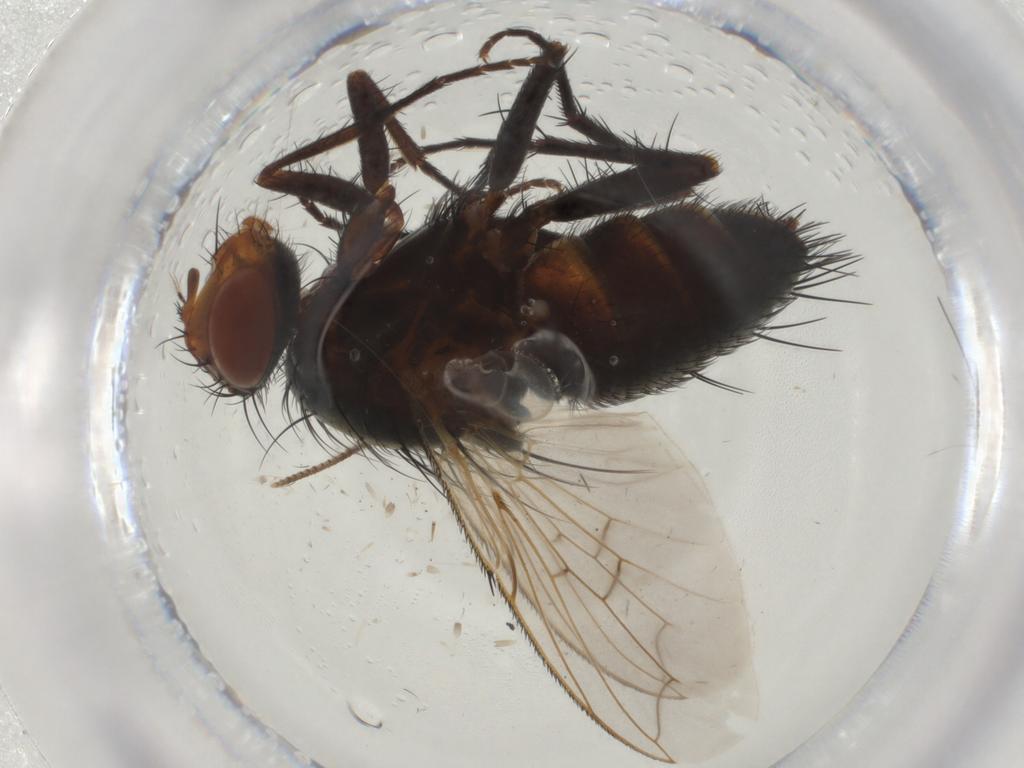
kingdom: Animalia
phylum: Arthropoda
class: Insecta
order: Diptera
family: Tachinidae
